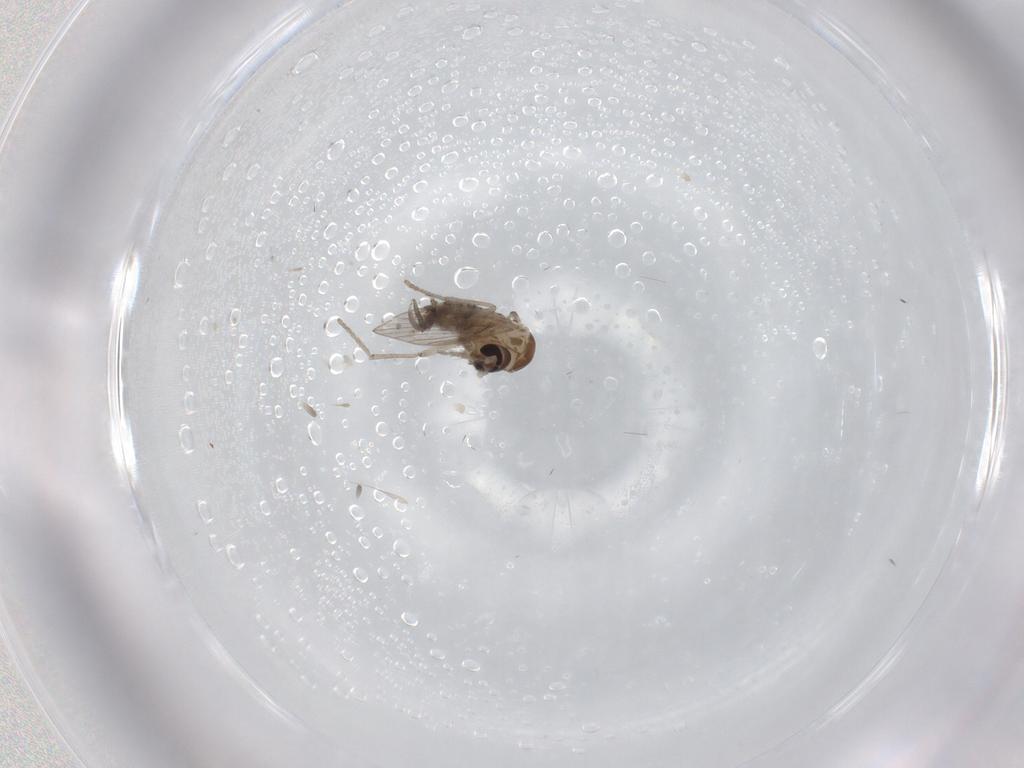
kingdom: Animalia
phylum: Arthropoda
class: Insecta
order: Diptera
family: Psychodidae
